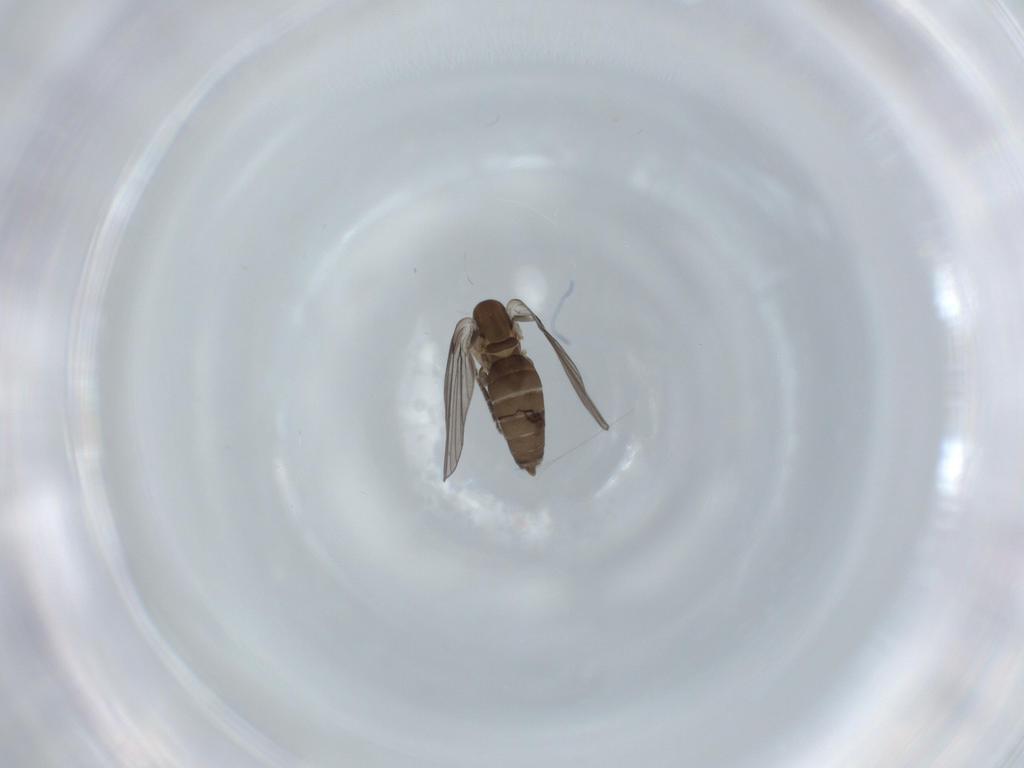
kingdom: Animalia
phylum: Arthropoda
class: Insecta
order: Diptera
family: Psychodidae
